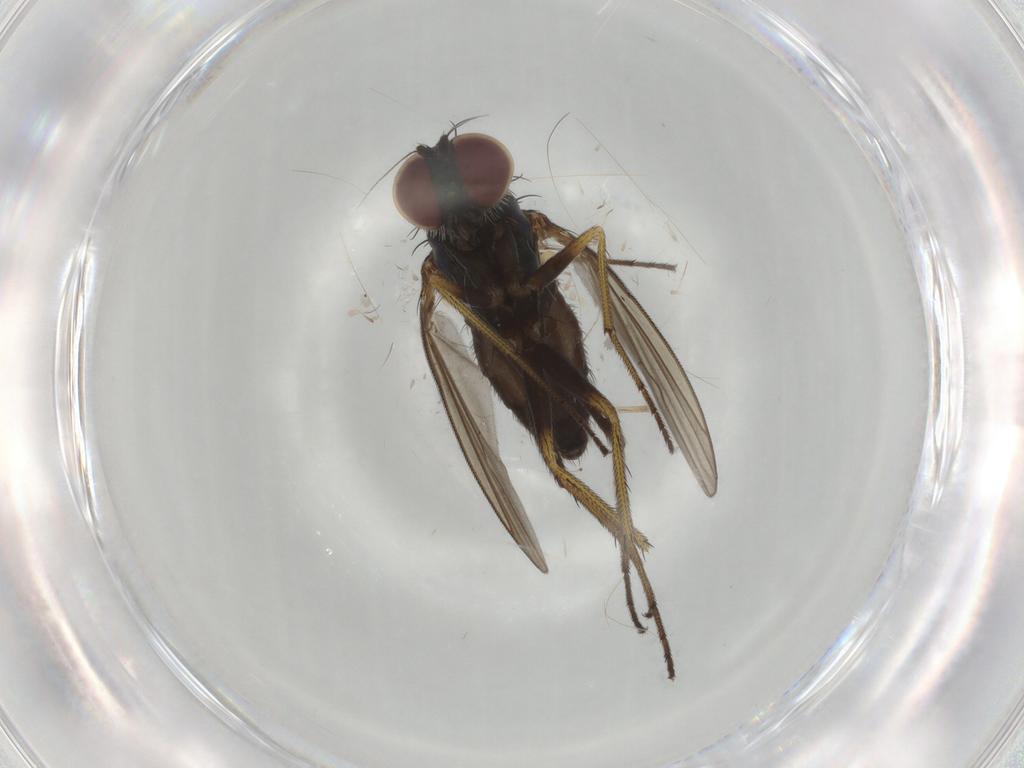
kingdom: Animalia
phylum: Arthropoda
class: Insecta
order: Diptera
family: Dolichopodidae
